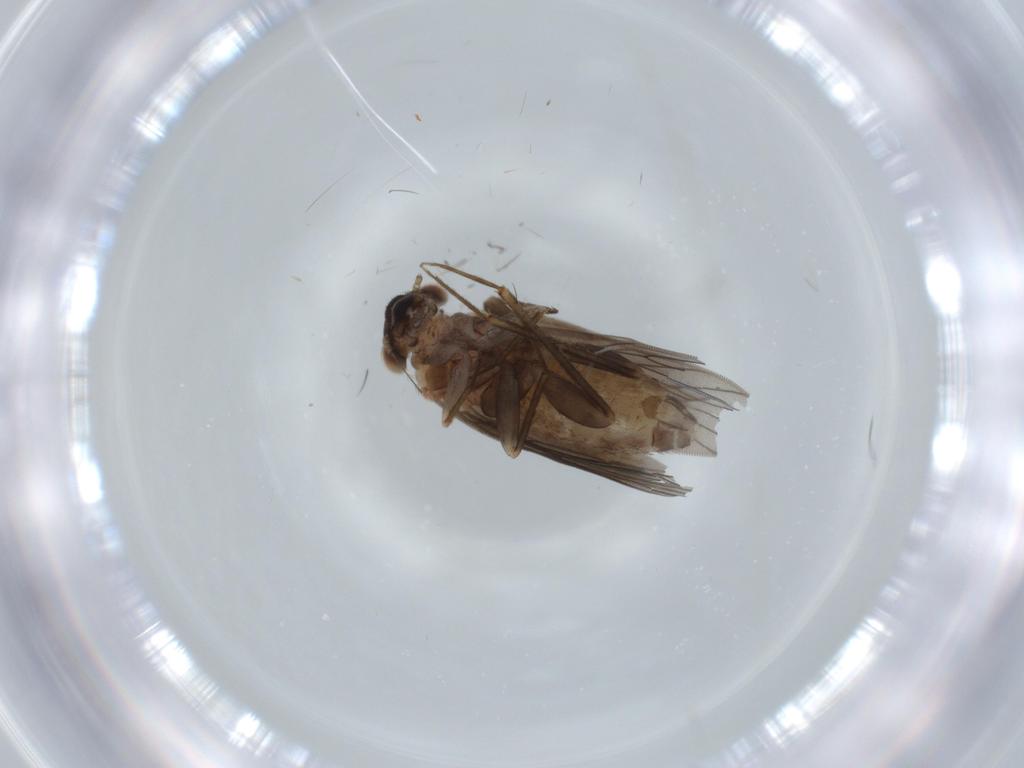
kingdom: Animalia
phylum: Arthropoda
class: Insecta
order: Psocodea
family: Lepidopsocidae
